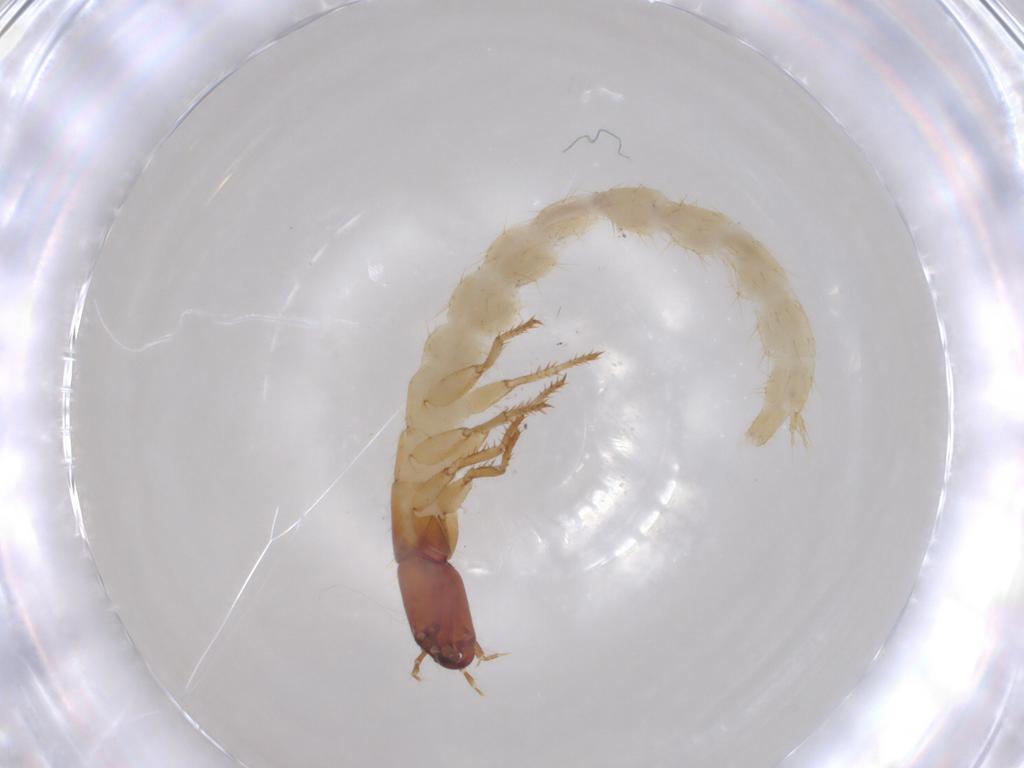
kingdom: Animalia
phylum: Arthropoda
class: Insecta
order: Coleoptera
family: Staphylinidae
